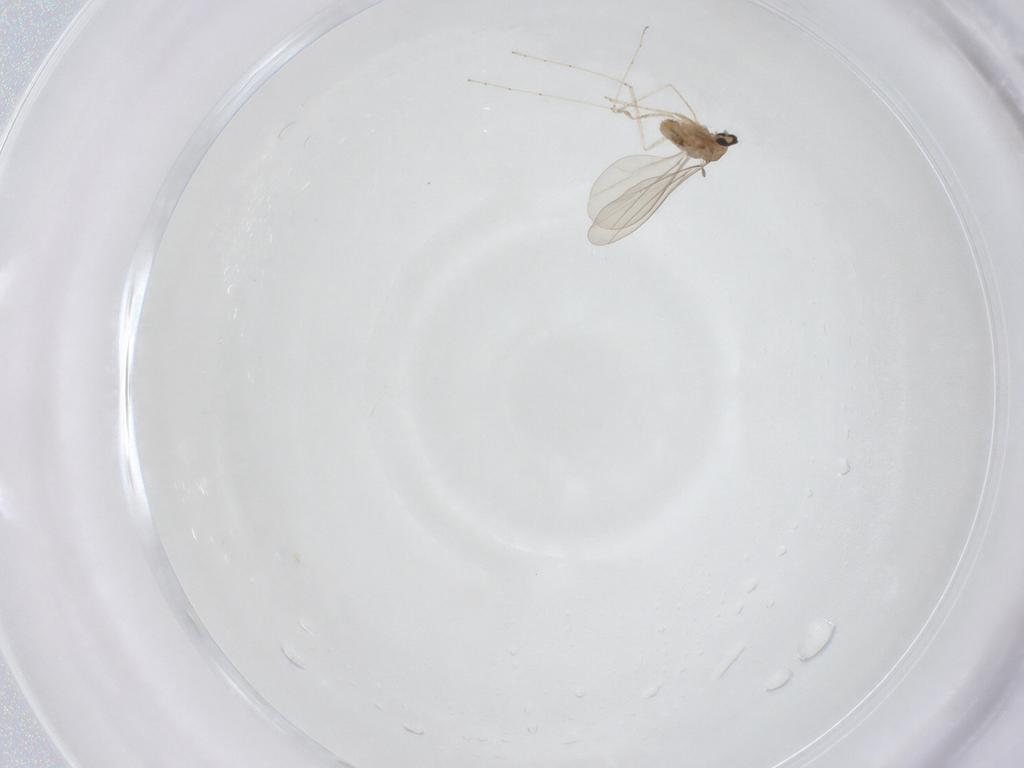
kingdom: Animalia
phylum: Arthropoda
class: Insecta
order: Diptera
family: Cecidomyiidae
